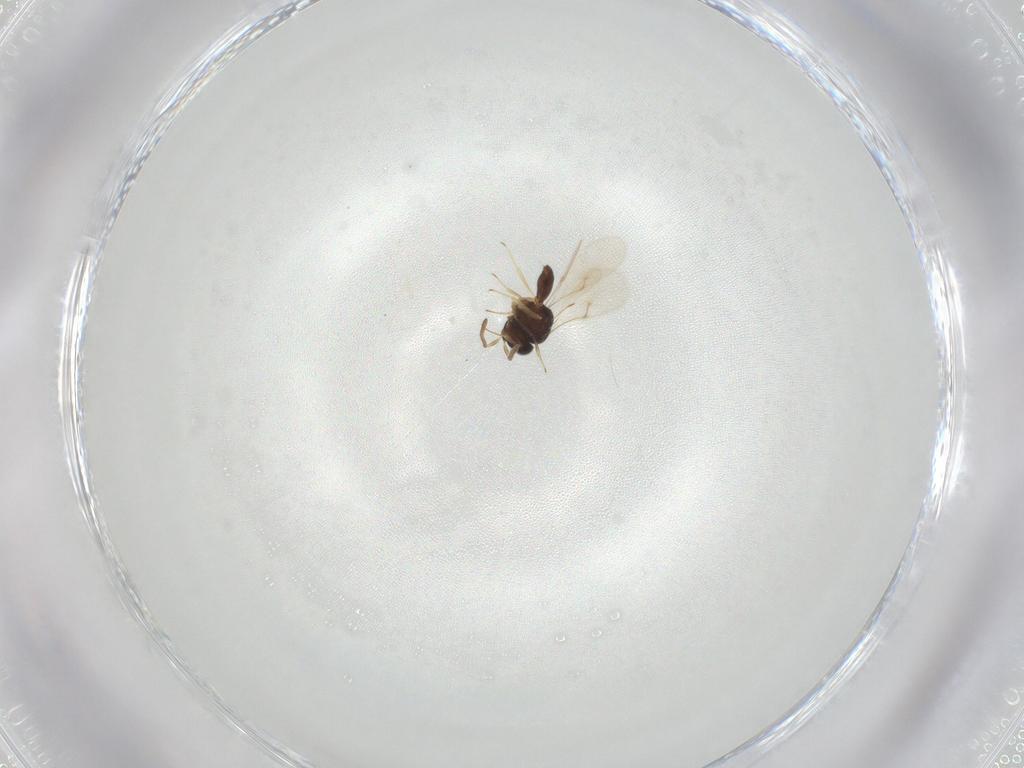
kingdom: Animalia
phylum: Arthropoda
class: Insecta
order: Hymenoptera
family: Scelionidae
